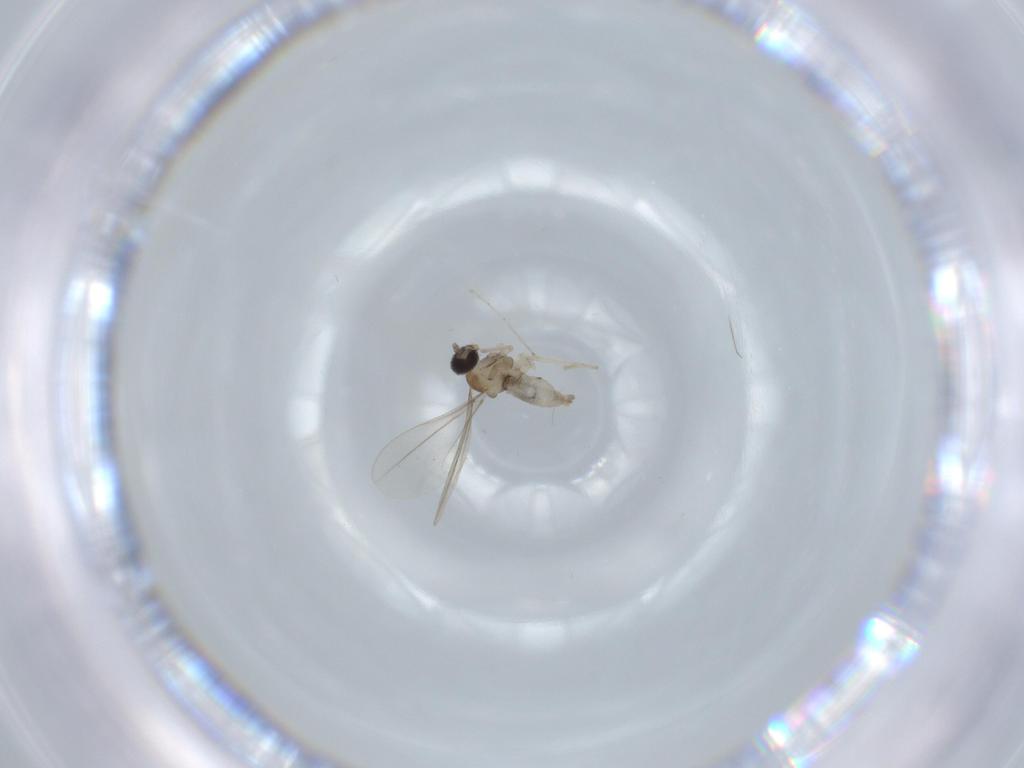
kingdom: Animalia
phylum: Arthropoda
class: Insecta
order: Diptera
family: Cecidomyiidae
